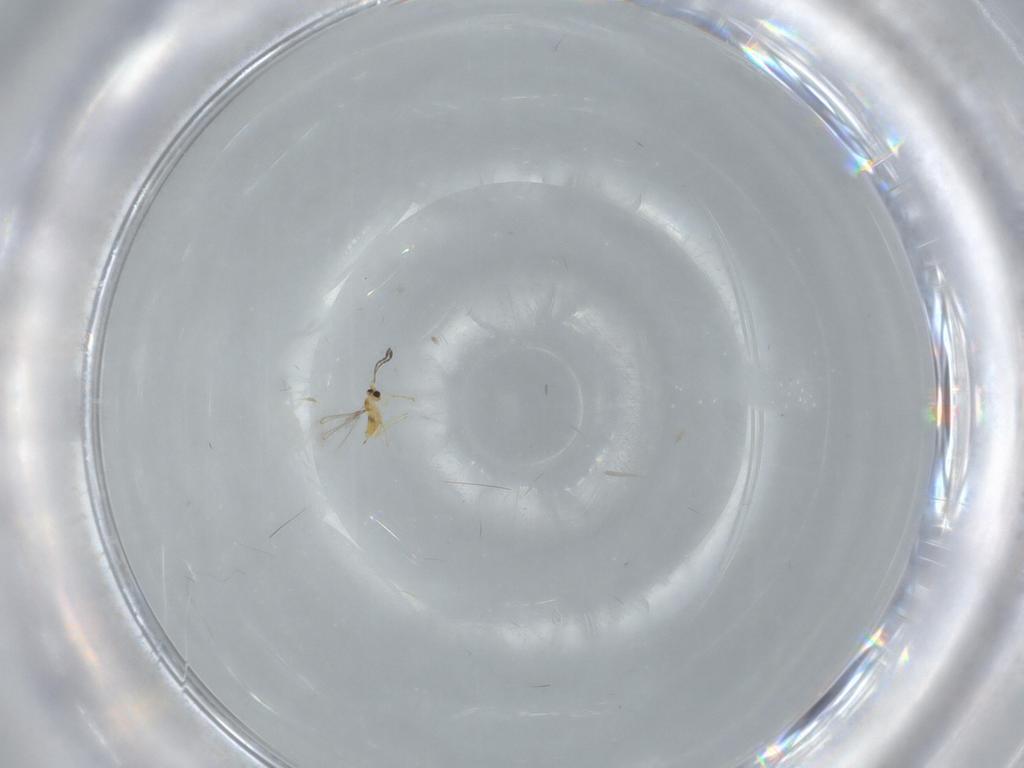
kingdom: Animalia
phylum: Arthropoda
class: Insecta
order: Hymenoptera
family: Mymaridae
